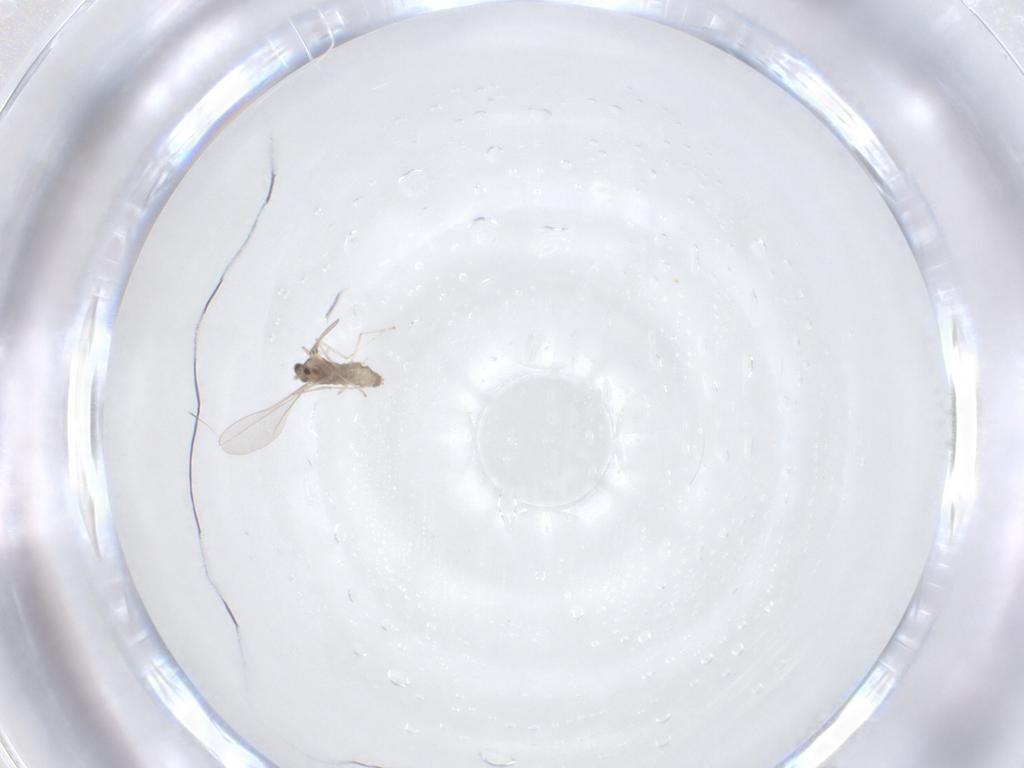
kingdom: Animalia
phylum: Arthropoda
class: Insecta
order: Diptera
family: Cecidomyiidae
